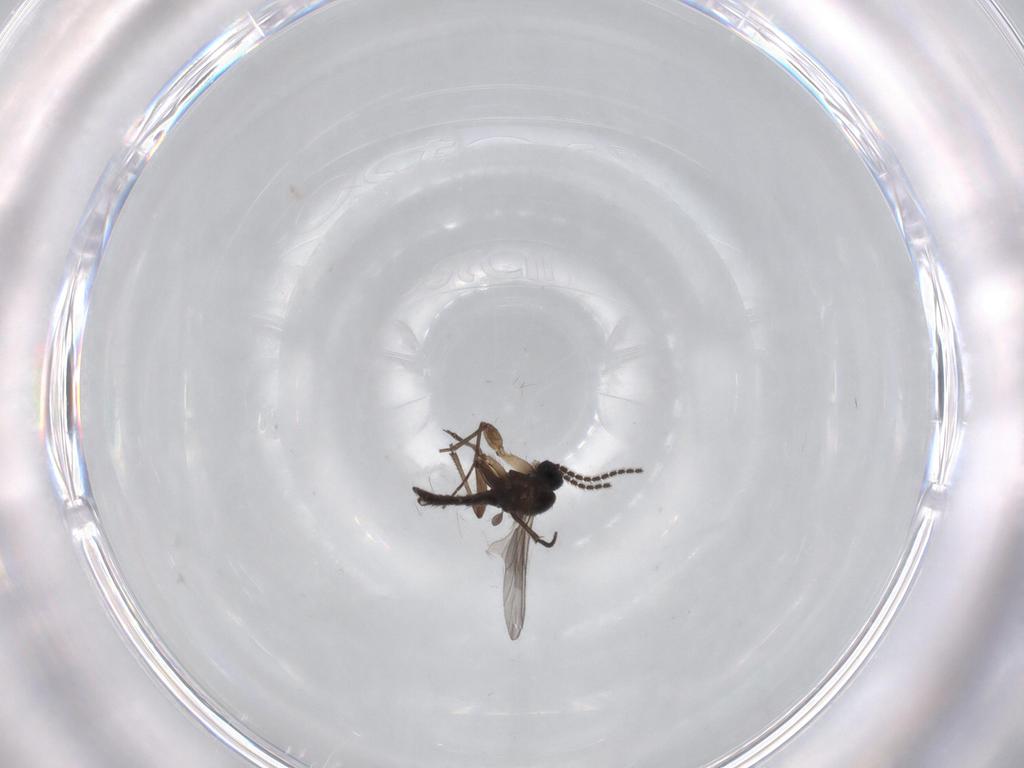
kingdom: Animalia
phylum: Arthropoda
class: Insecta
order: Diptera
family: Sciaridae
